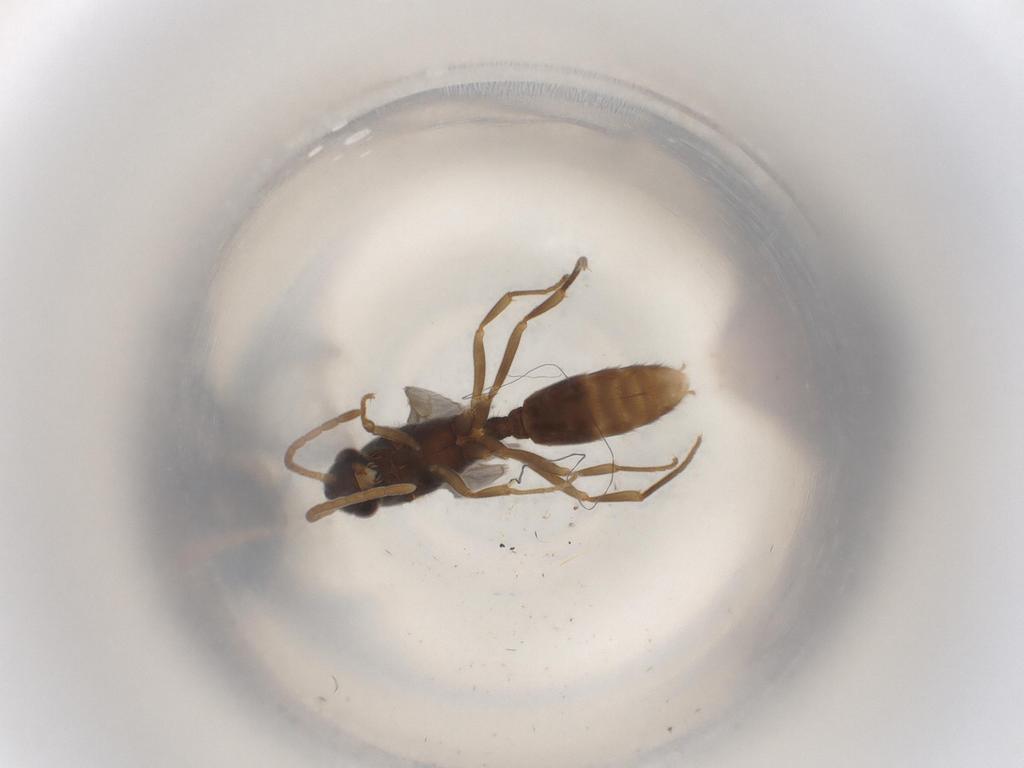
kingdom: Animalia
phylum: Arthropoda
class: Insecta
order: Hymenoptera
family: Formicidae
